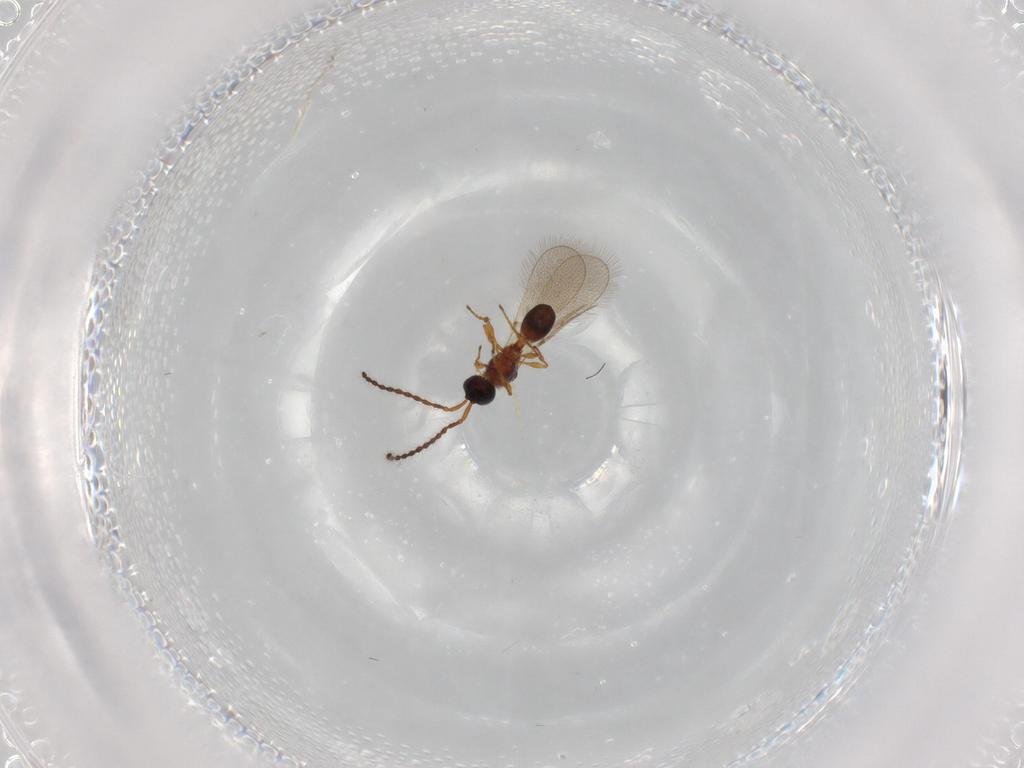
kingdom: Animalia
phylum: Arthropoda
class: Insecta
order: Hymenoptera
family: Diapriidae
